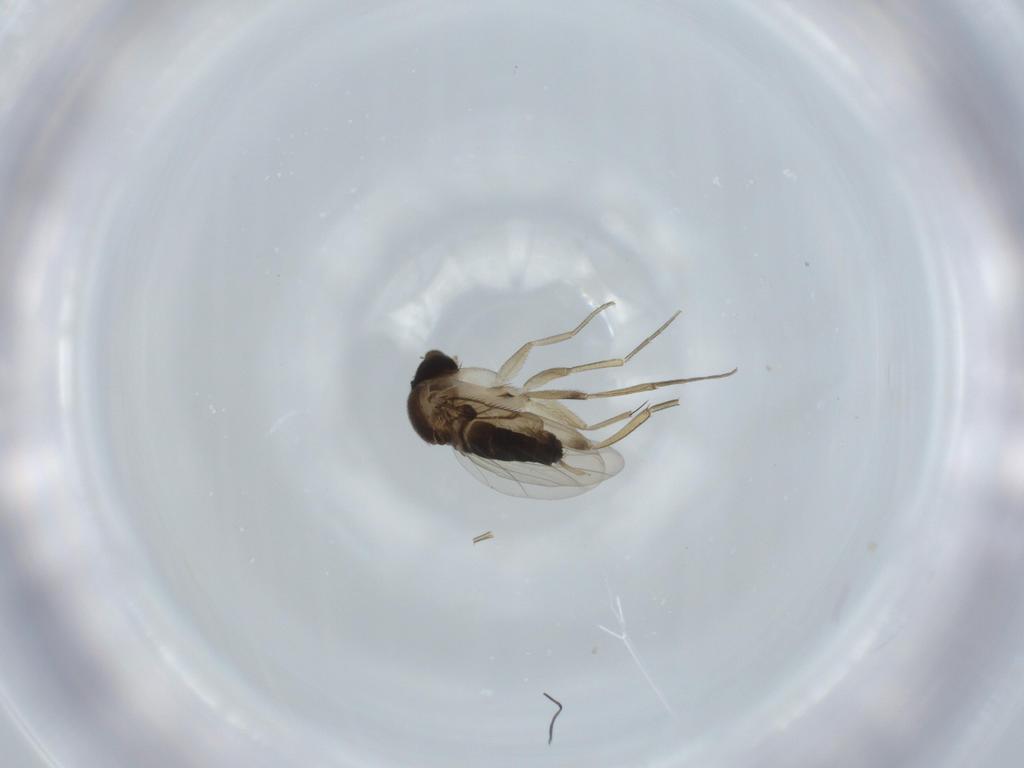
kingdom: Animalia
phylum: Arthropoda
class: Insecta
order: Diptera
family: Phoridae
